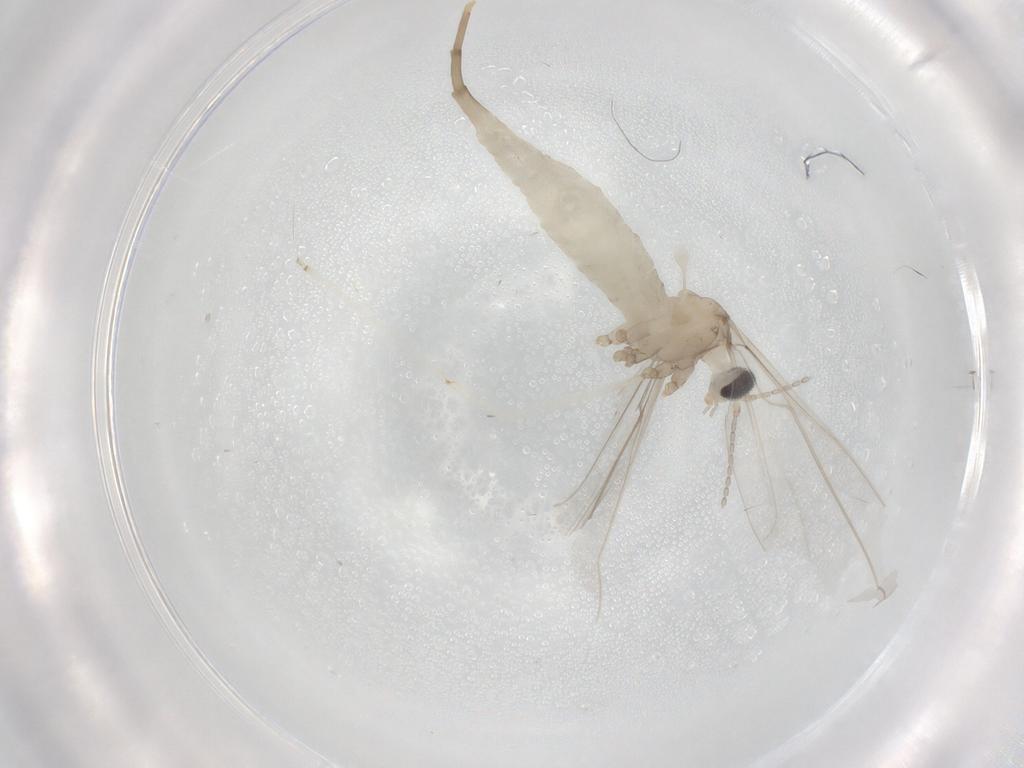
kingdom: Animalia
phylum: Arthropoda
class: Insecta
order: Diptera
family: Cecidomyiidae
